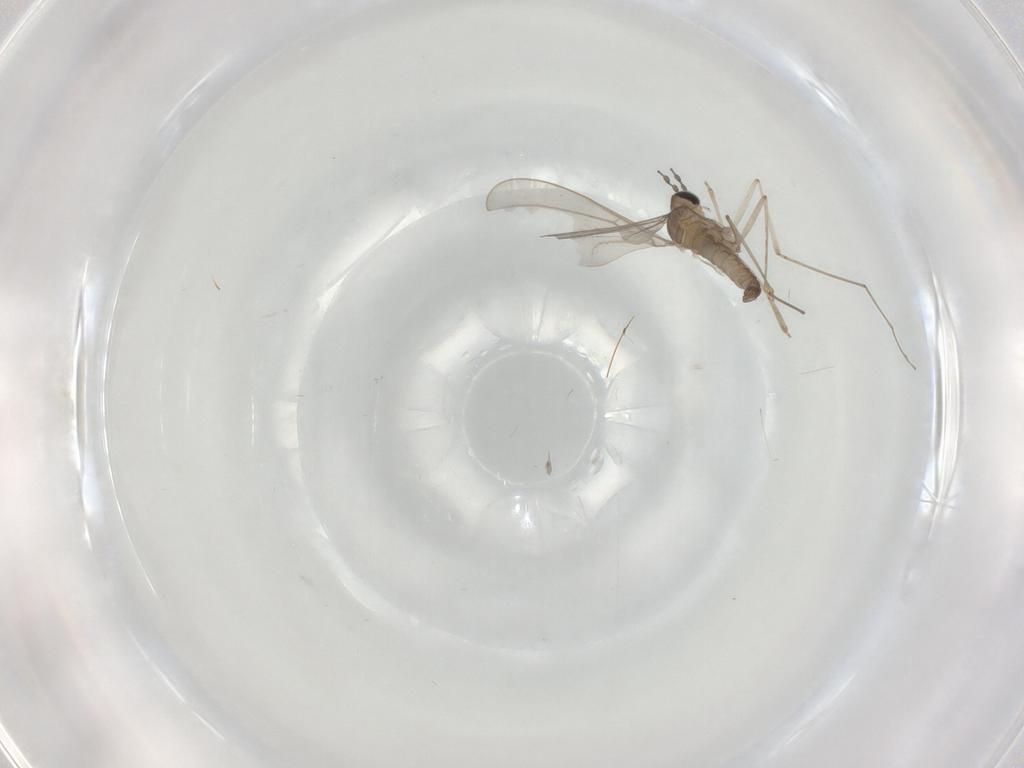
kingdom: Animalia
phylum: Arthropoda
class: Insecta
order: Diptera
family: Cecidomyiidae
